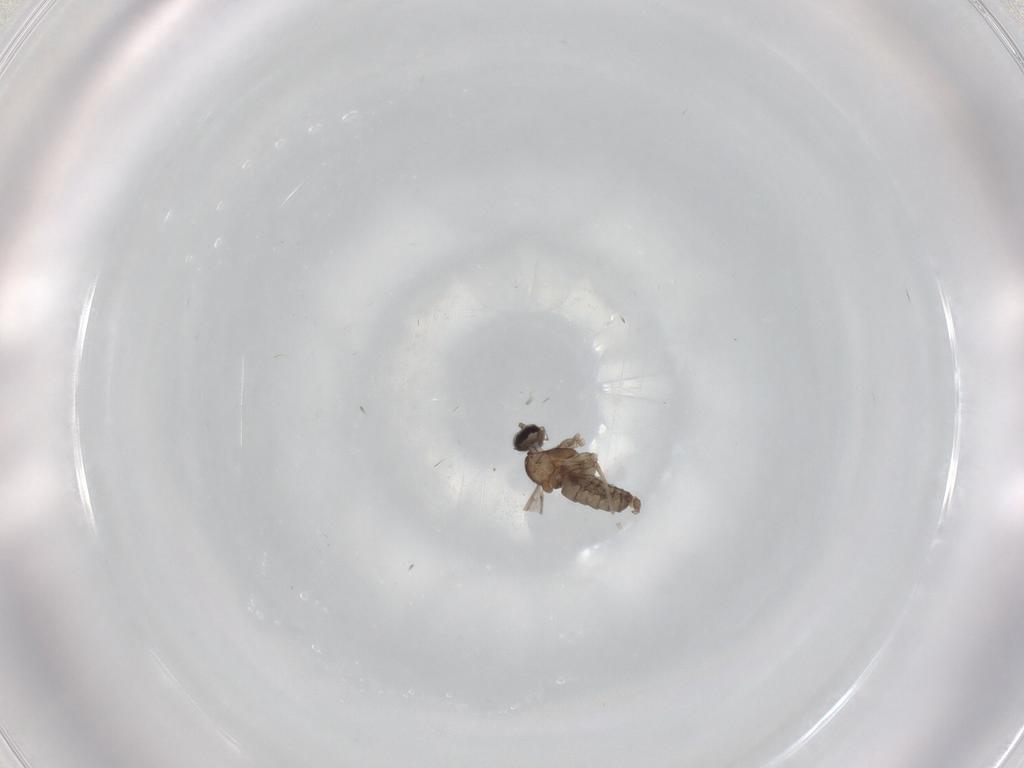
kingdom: Animalia
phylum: Arthropoda
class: Insecta
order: Diptera
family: Cecidomyiidae
